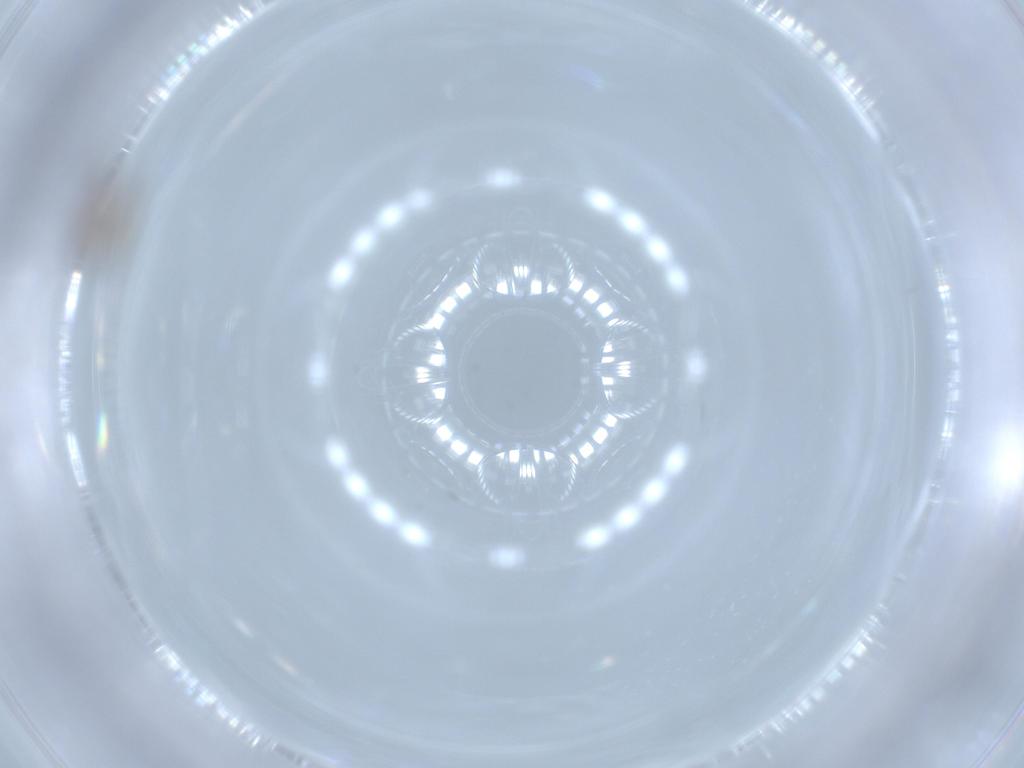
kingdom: Animalia
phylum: Arthropoda
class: Insecta
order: Diptera
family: Psychodidae
